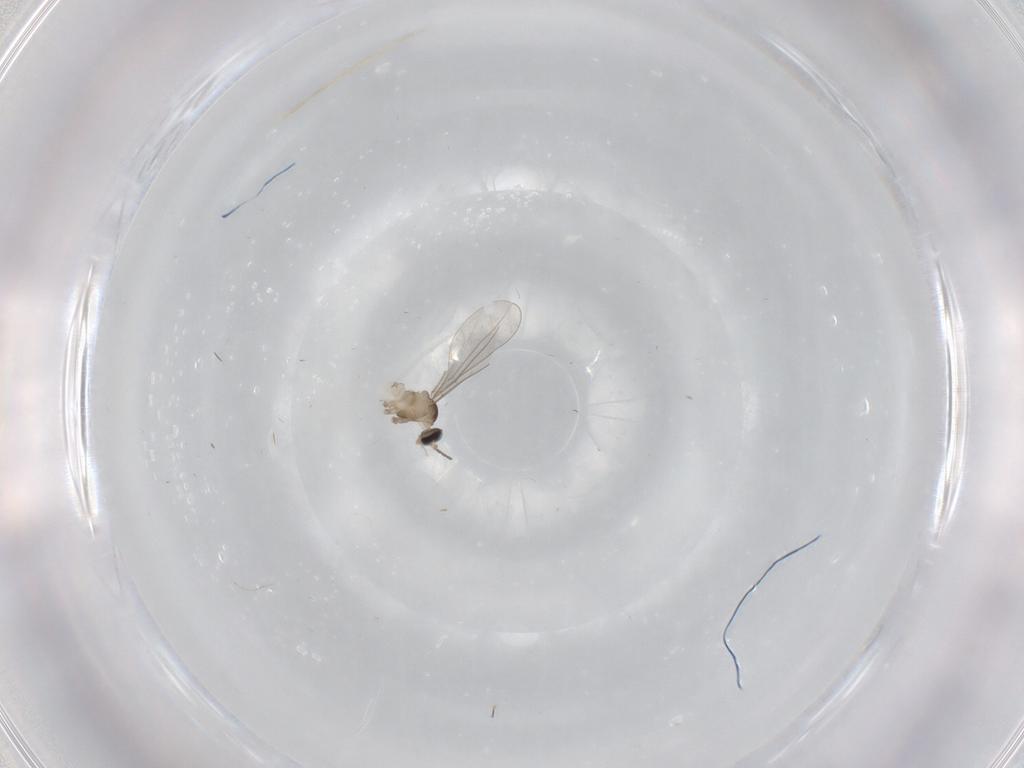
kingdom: Animalia
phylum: Arthropoda
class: Insecta
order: Diptera
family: Cecidomyiidae
